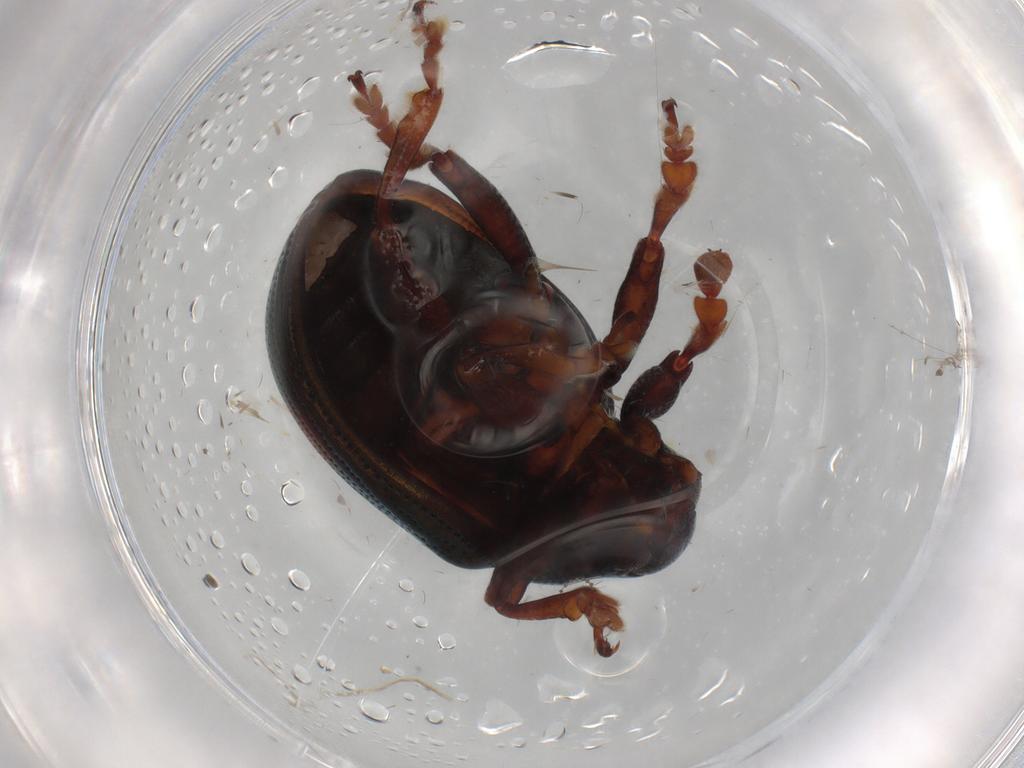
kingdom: Animalia
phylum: Arthropoda
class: Insecta
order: Coleoptera
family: Chrysomelidae
